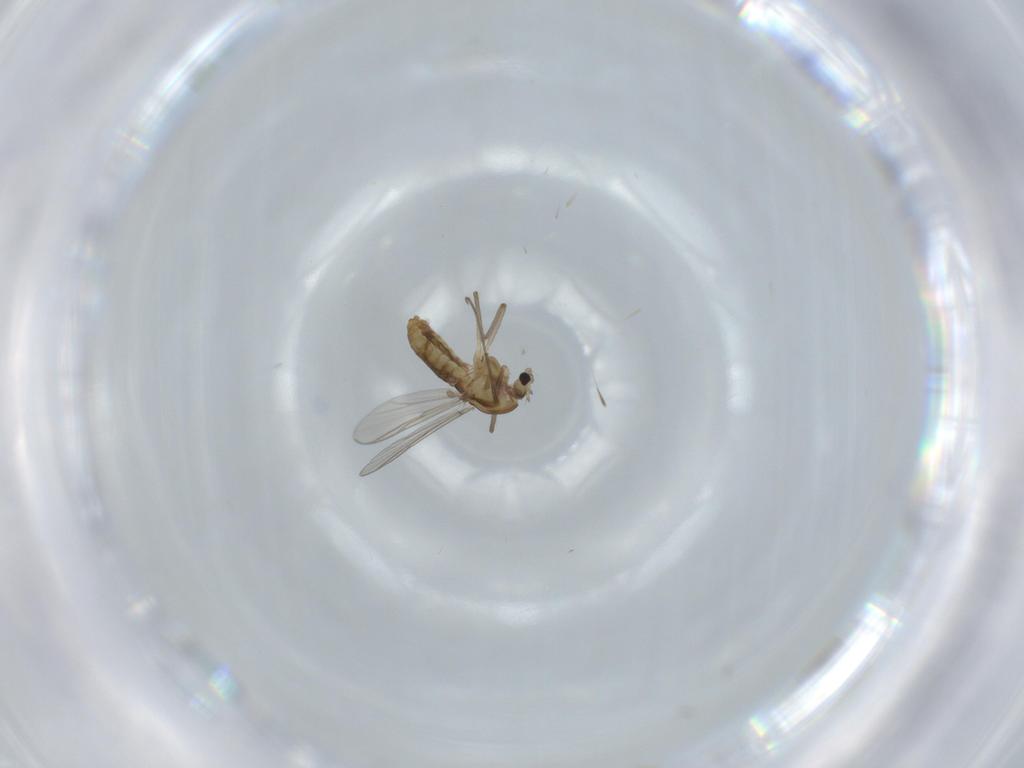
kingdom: Animalia
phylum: Arthropoda
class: Insecta
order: Diptera
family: Chironomidae
